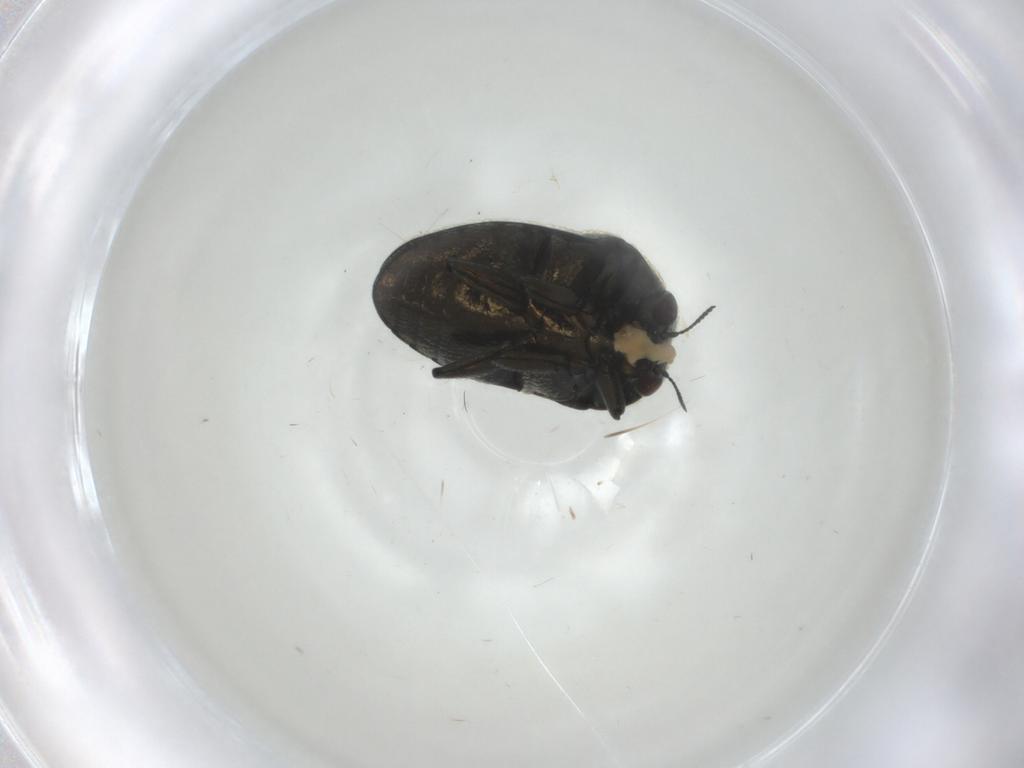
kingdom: Animalia
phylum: Arthropoda
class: Insecta
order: Coleoptera
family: Buprestidae
